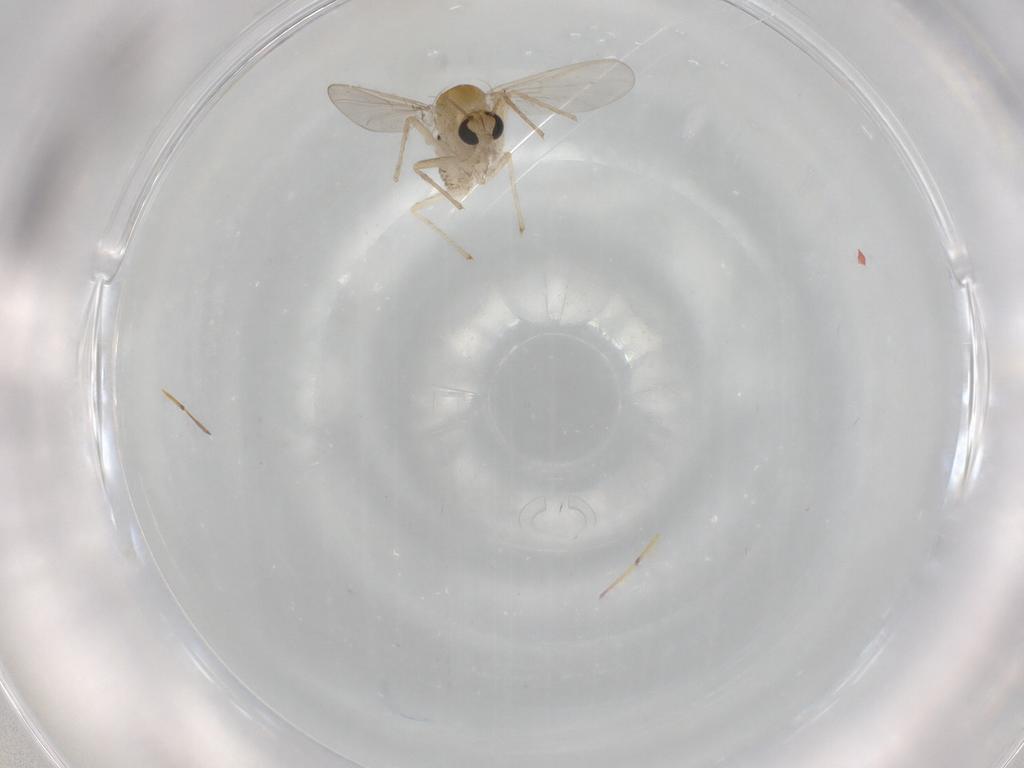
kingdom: Animalia
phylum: Arthropoda
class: Insecta
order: Diptera
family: Chironomidae
